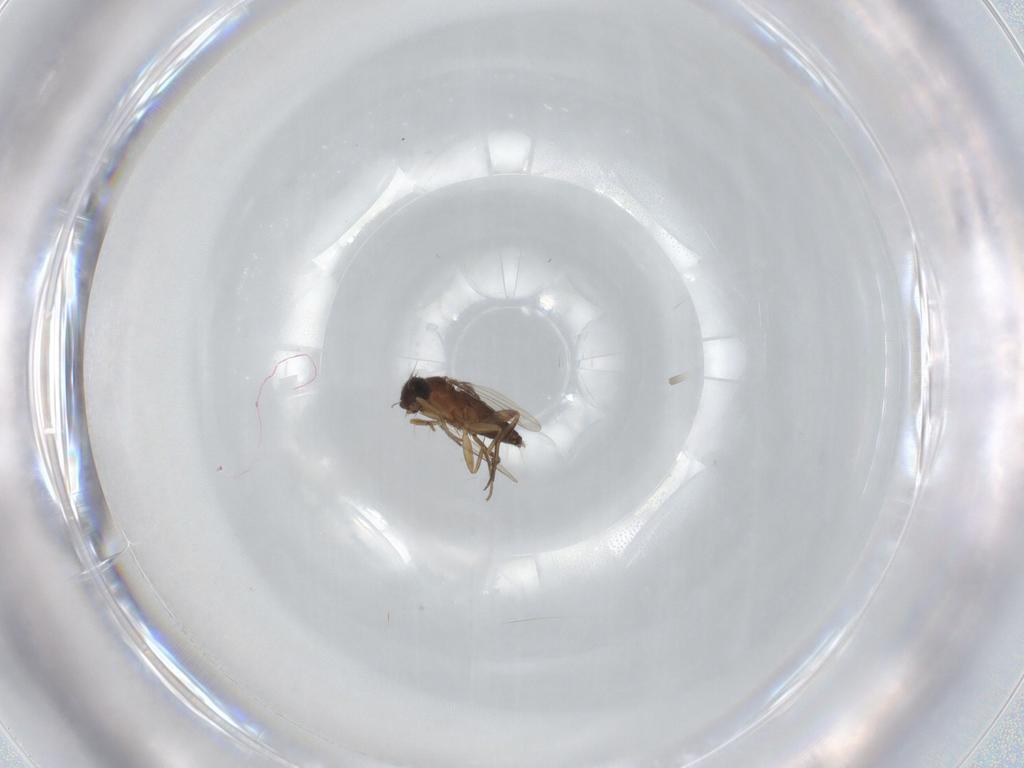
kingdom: Animalia
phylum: Arthropoda
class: Insecta
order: Diptera
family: Phoridae
